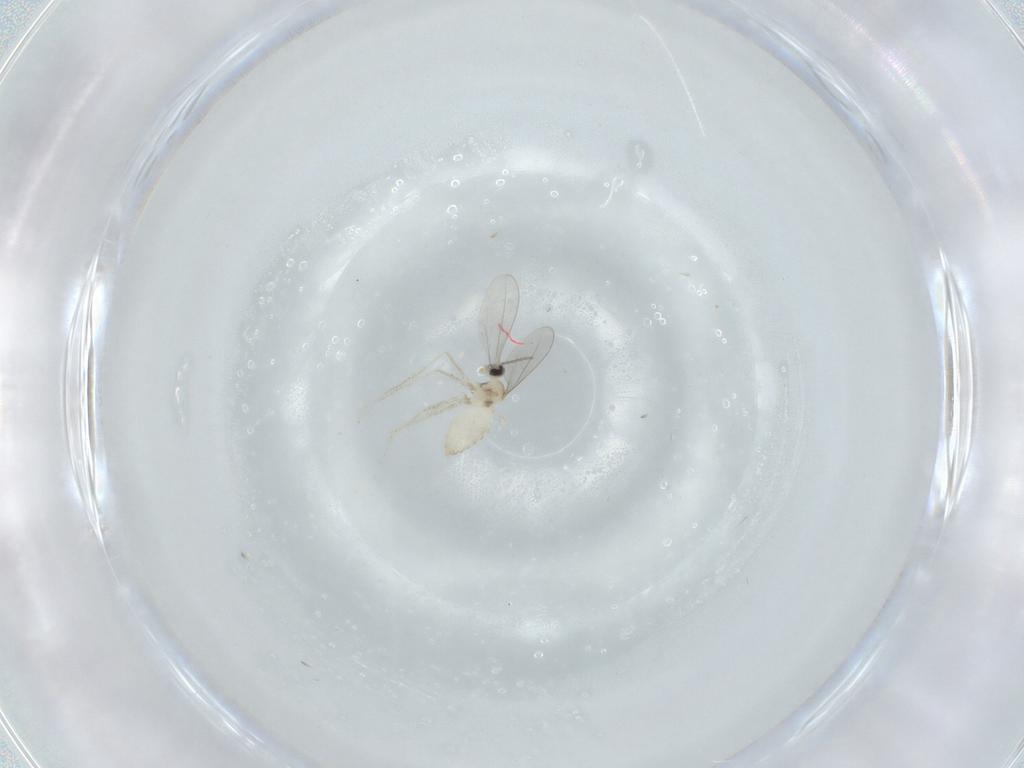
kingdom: Animalia
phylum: Arthropoda
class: Insecta
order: Diptera
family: Cecidomyiidae
